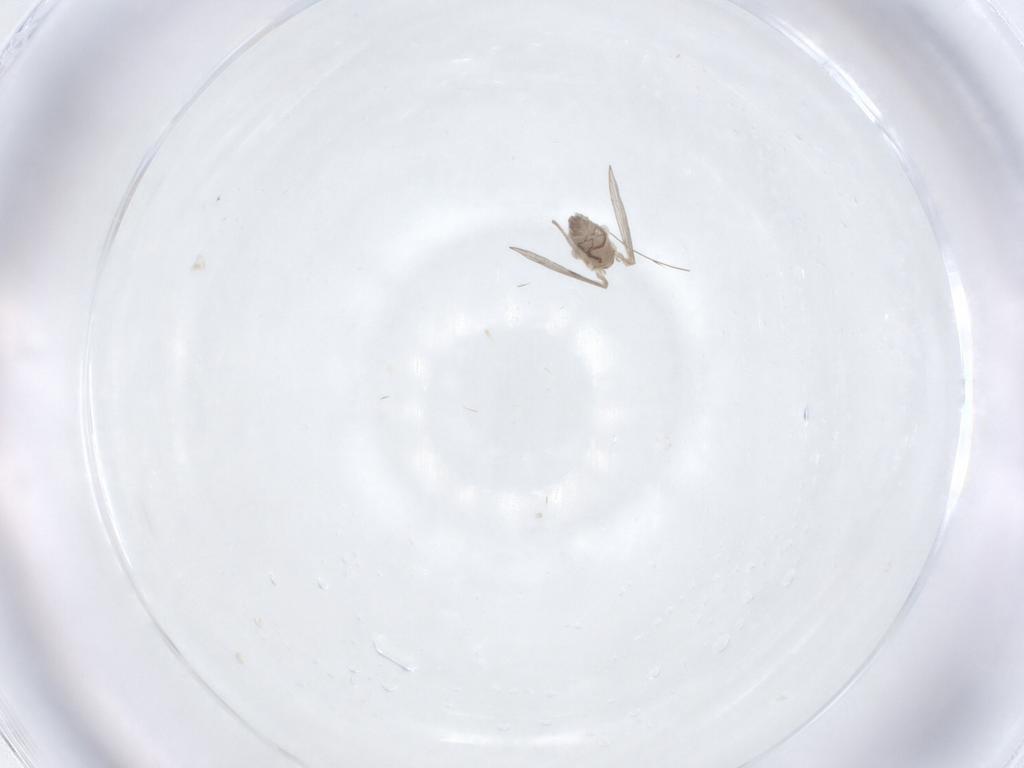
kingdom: Animalia
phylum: Arthropoda
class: Insecta
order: Diptera
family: Psychodidae
